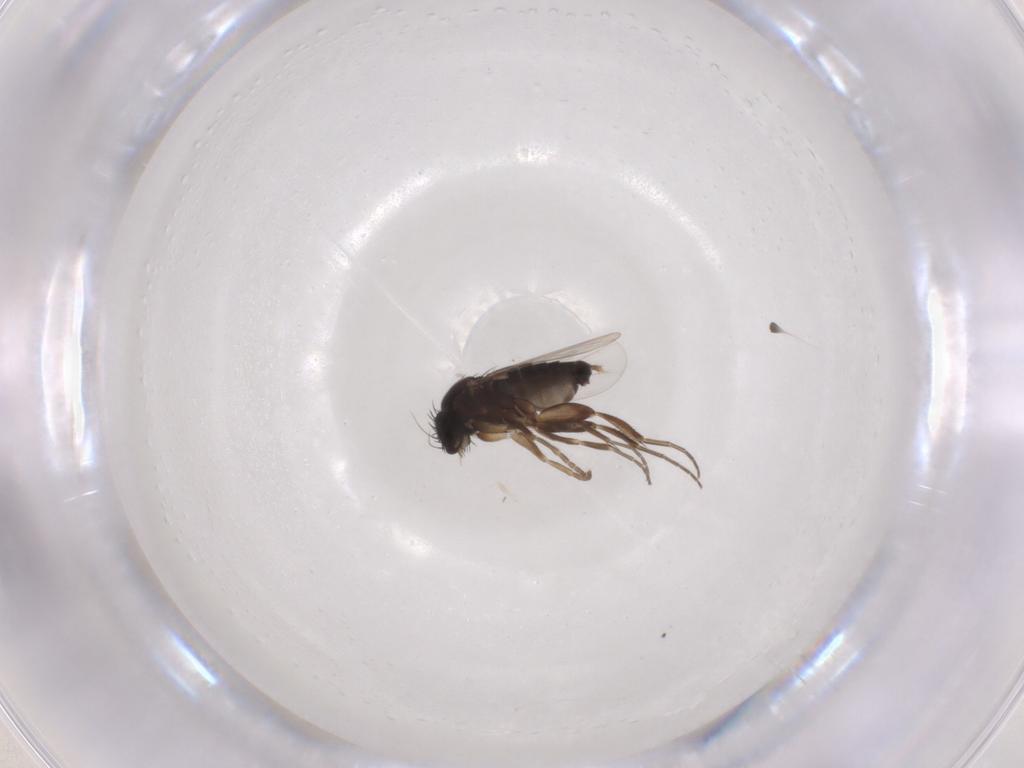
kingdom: Animalia
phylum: Arthropoda
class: Insecta
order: Diptera
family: Phoridae
